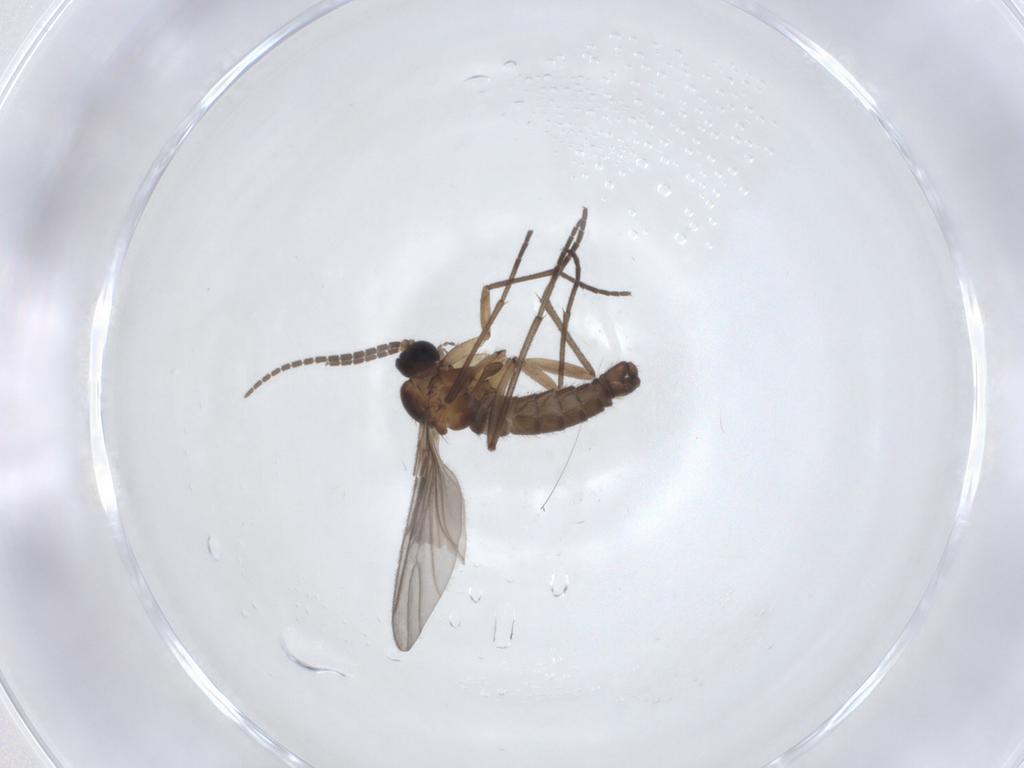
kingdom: Animalia
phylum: Arthropoda
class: Insecta
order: Diptera
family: Sciaridae
